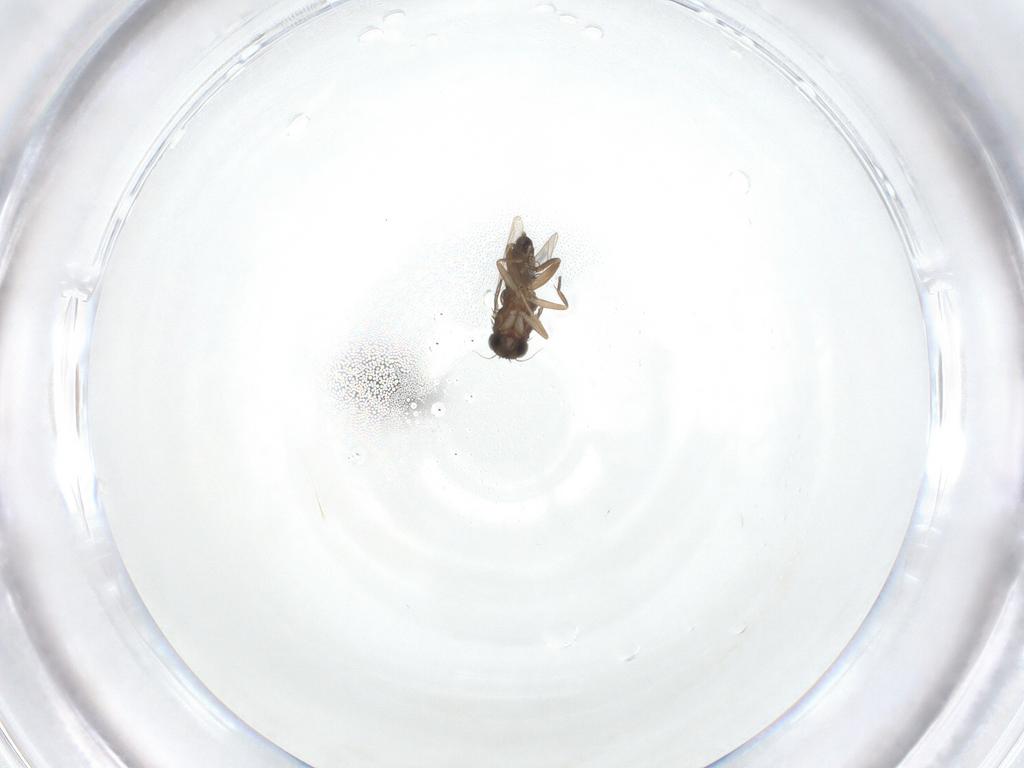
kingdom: Animalia
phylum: Arthropoda
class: Insecta
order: Diptera
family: Phoridae
